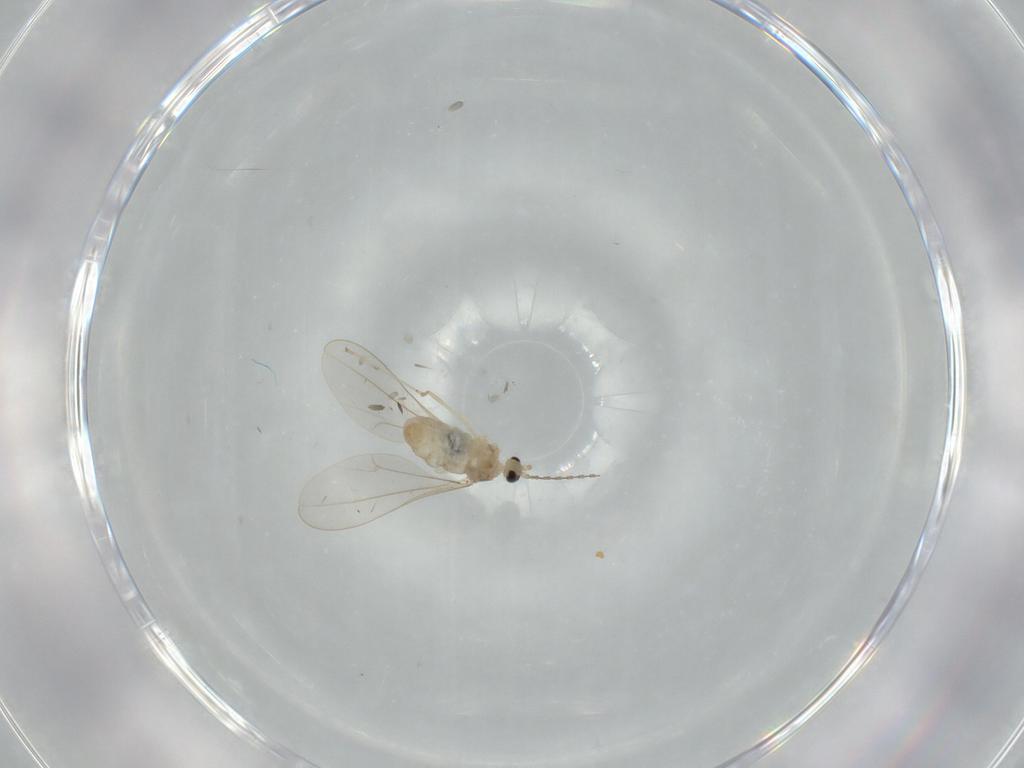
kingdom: Animalia
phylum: Arthropoda
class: Insecta
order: Diptera
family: Cecidomyiidae
